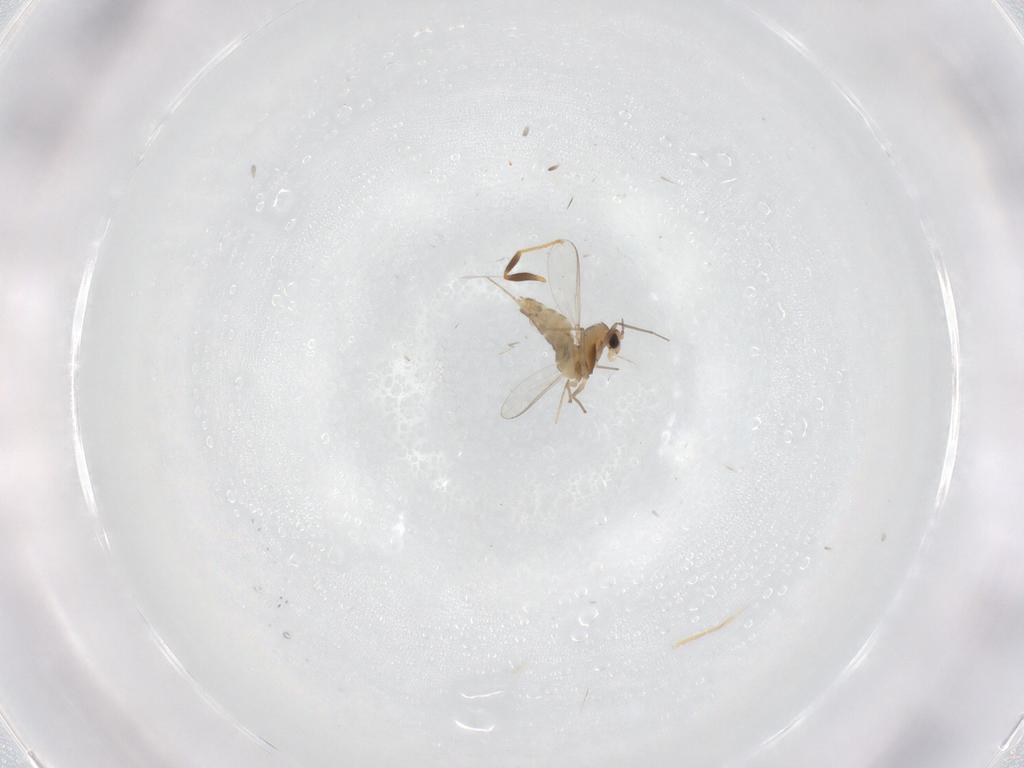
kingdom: Animalia
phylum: Arthropoda
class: Insecta
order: Diptera
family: Chironomidae
